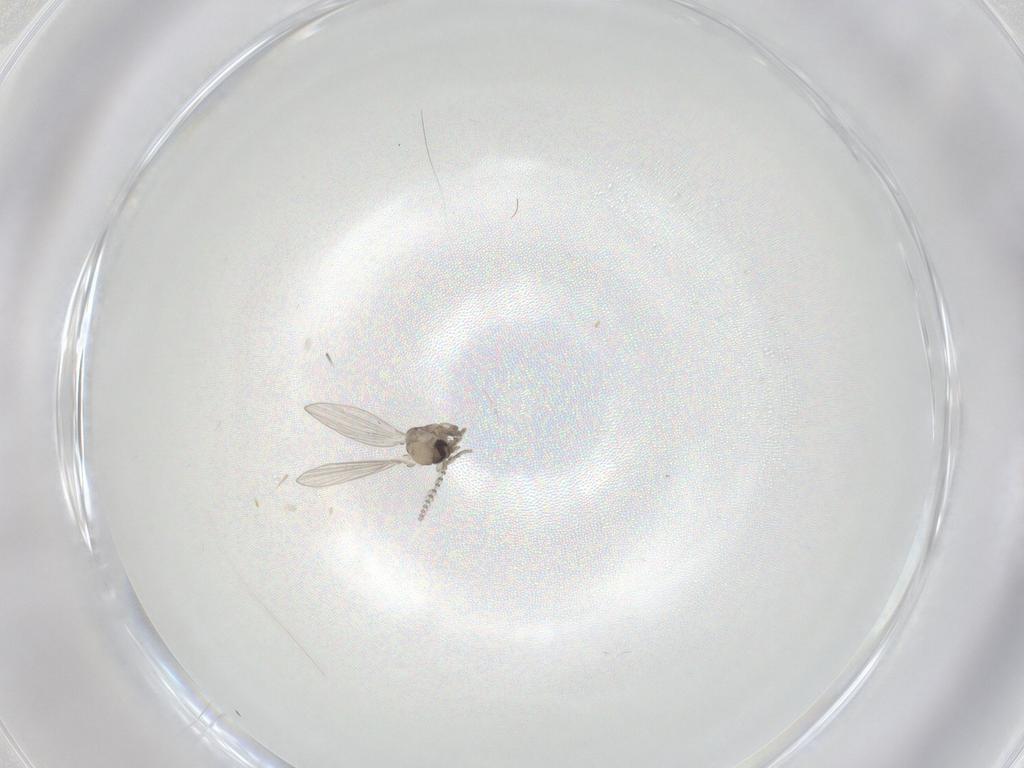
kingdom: Animalia
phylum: Arthropoda
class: Insecta
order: Diptera
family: Psychodidae
